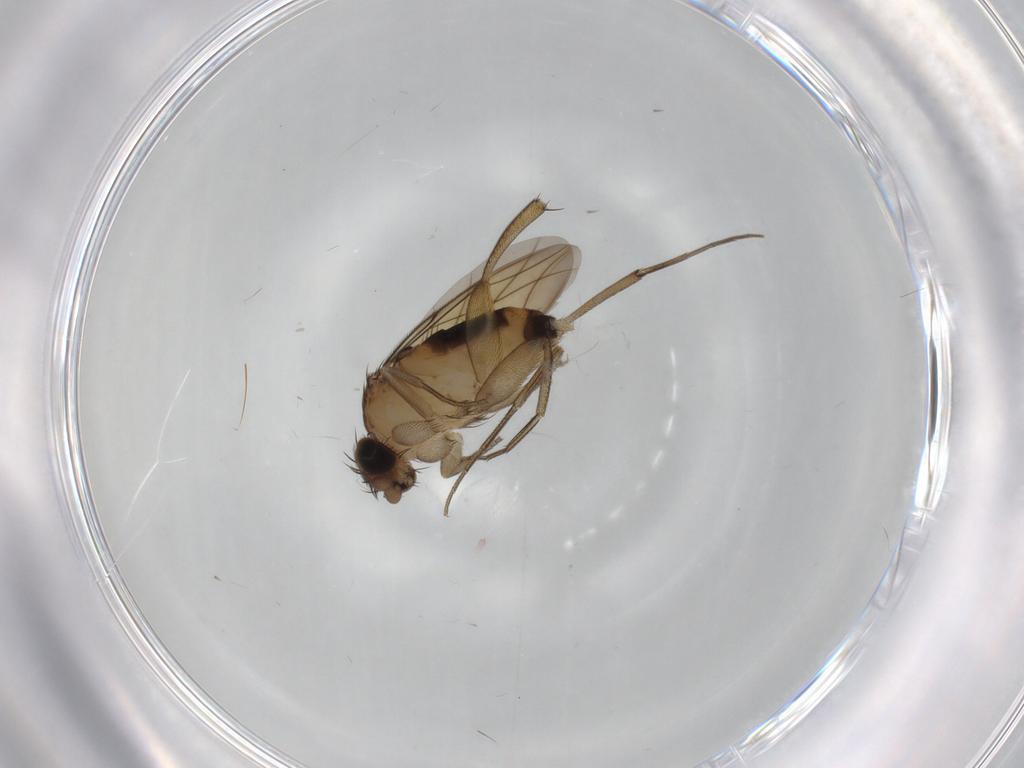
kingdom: Animalia
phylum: Arthropoda
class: Insecta
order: Diptera
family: Phoridae
